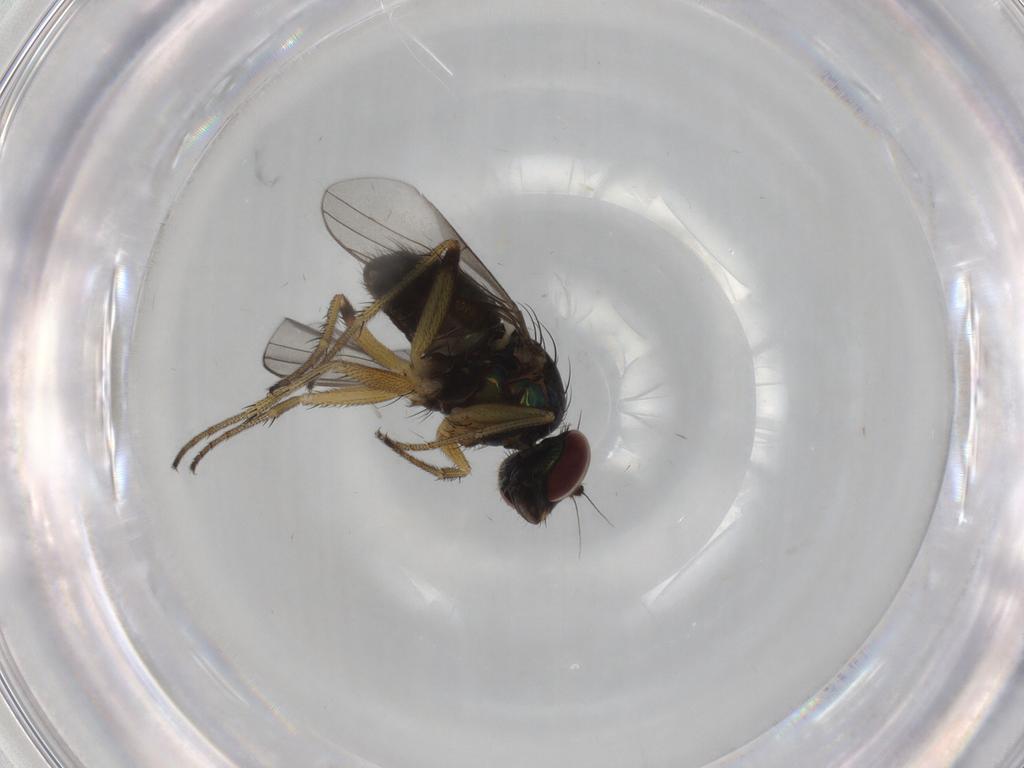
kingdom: Animalia
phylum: Arthropoda
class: Insecta
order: Diptera
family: Dolichopodidae
